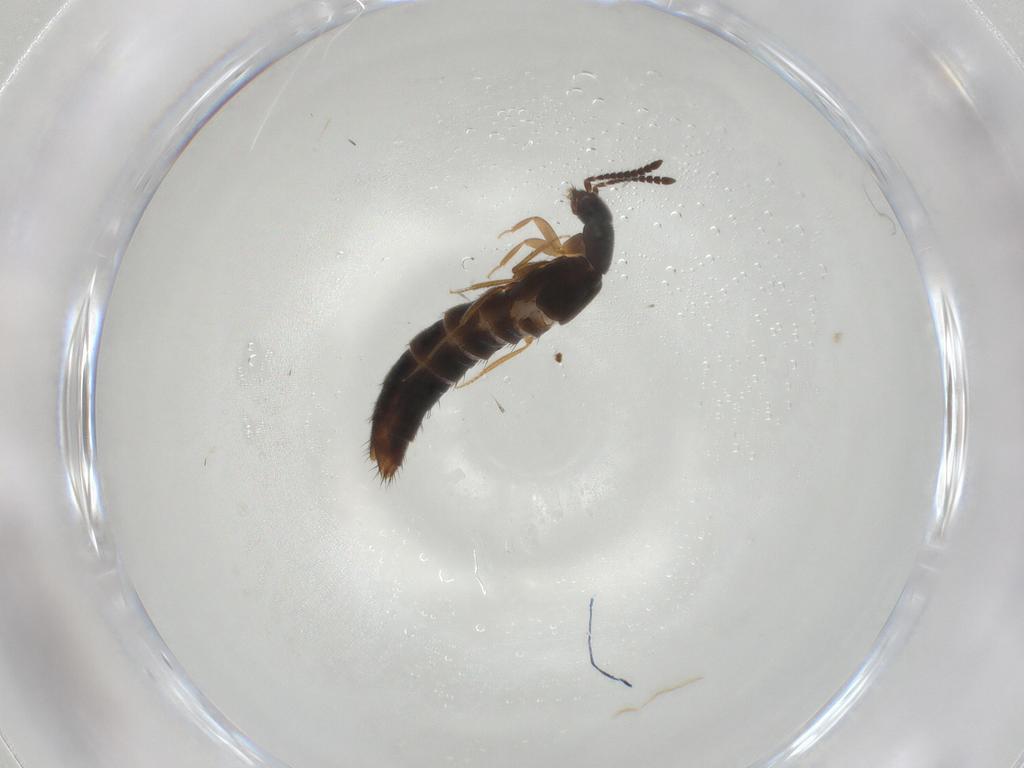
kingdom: Animalia
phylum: Arthropoda
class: Insecta
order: Coleoptera
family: Staphylinidae
